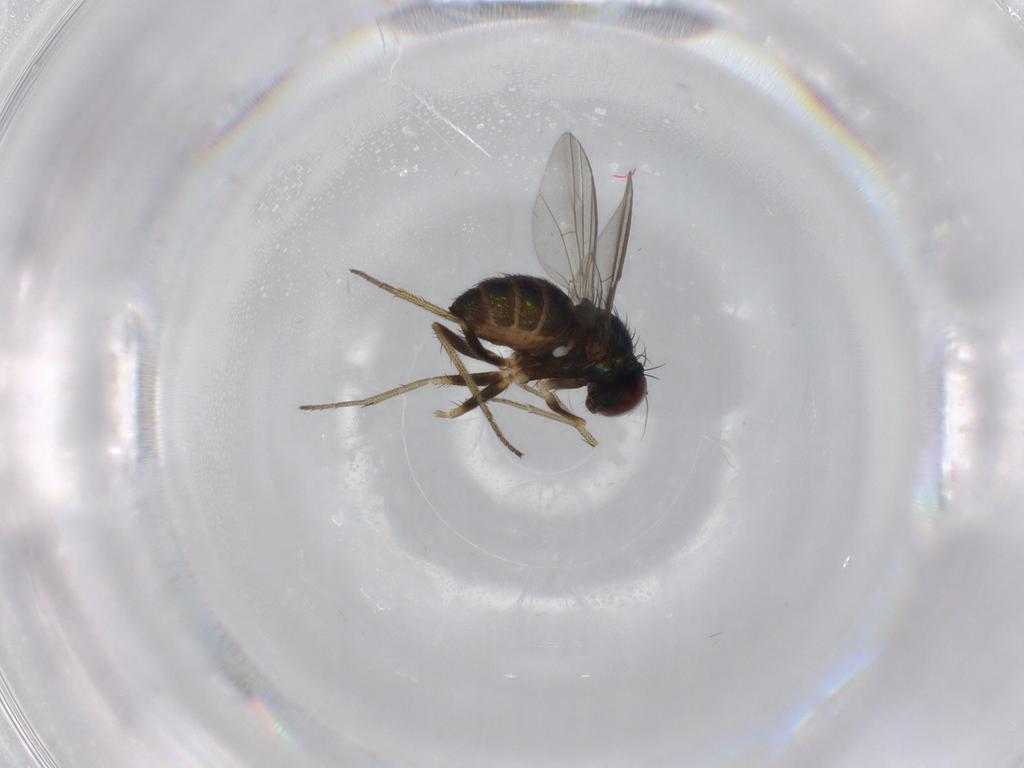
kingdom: Animalia
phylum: Arthropoda
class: Insecta
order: Diptera
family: Dolichopodidae
